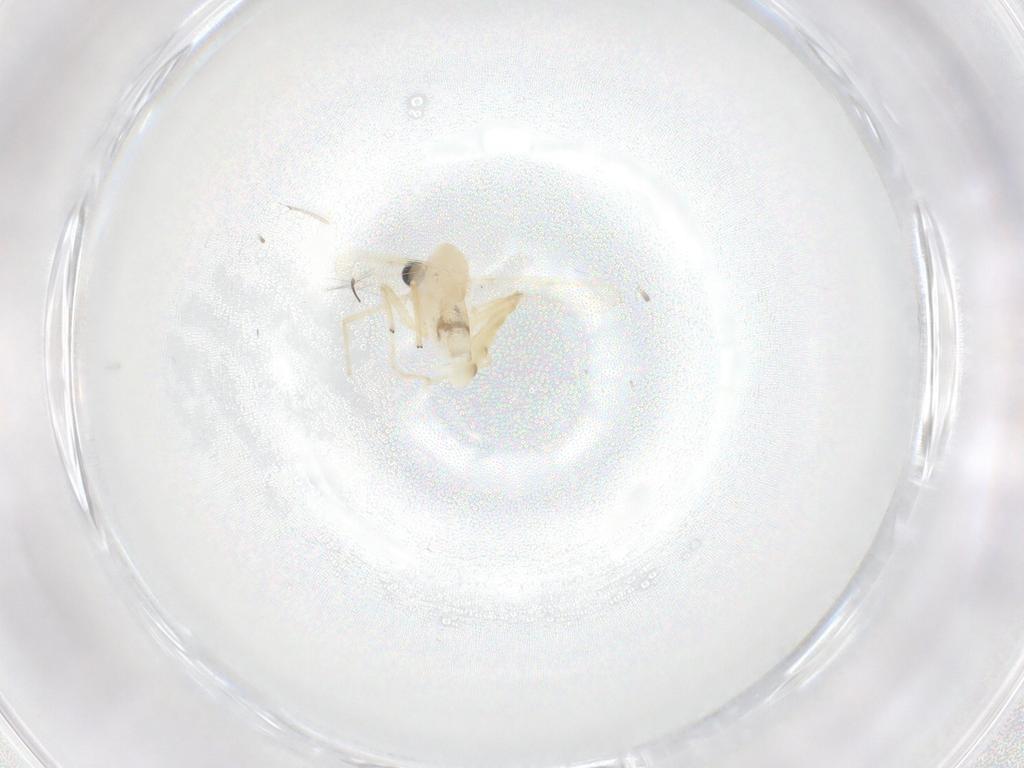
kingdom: Animalia
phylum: Arthropoda
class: Insecta
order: Diptera
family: Chironomidae
